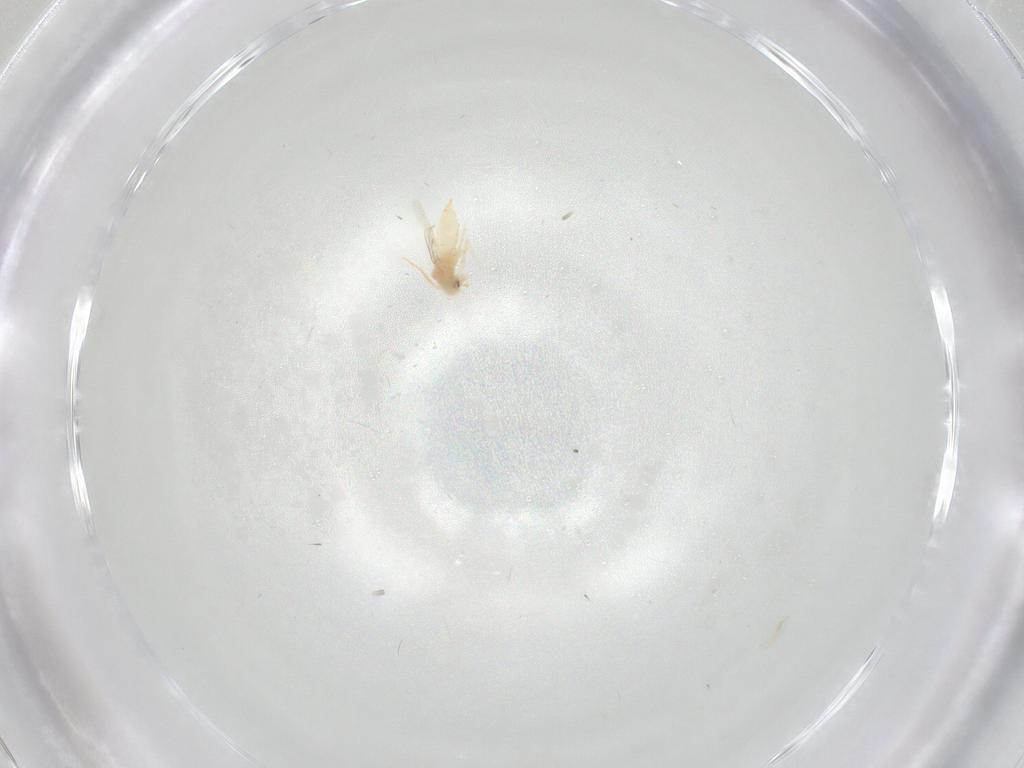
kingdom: Animalia
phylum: Arthropoda
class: Insecta
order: Hemiptera
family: Aleyrodidae
